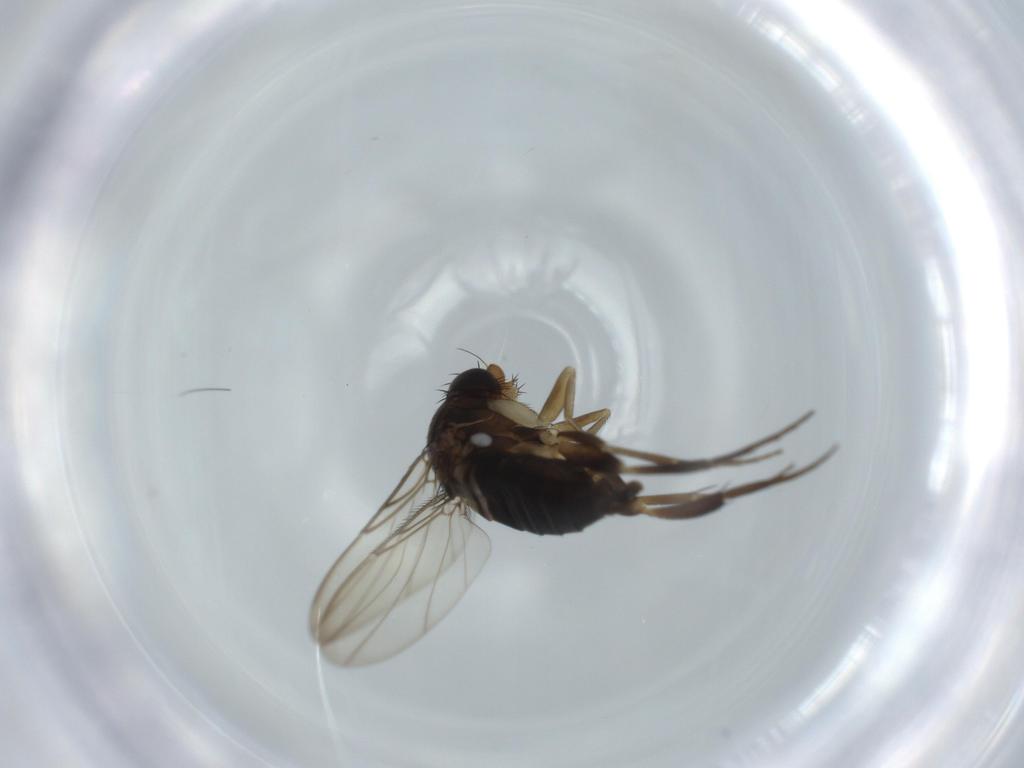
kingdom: Animalia
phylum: Arthropoda
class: Insecta
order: Diptera
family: Phoridae
